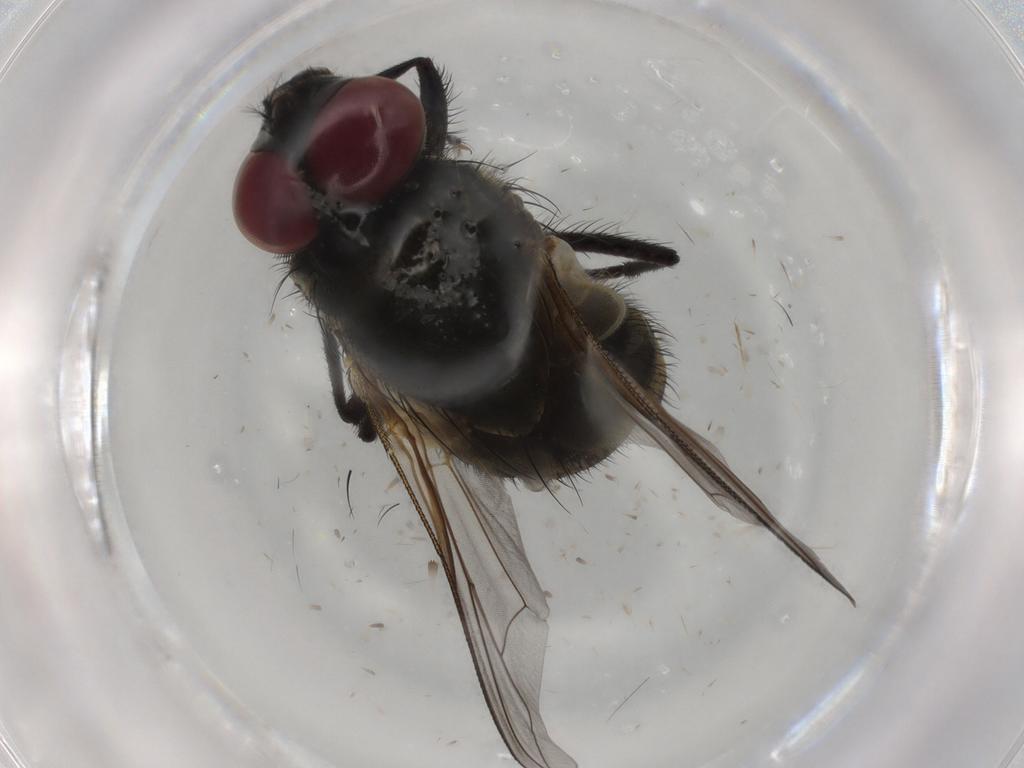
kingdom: Animalia
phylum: Arthropoda
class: Insecta
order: Diptera
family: Muscidae
